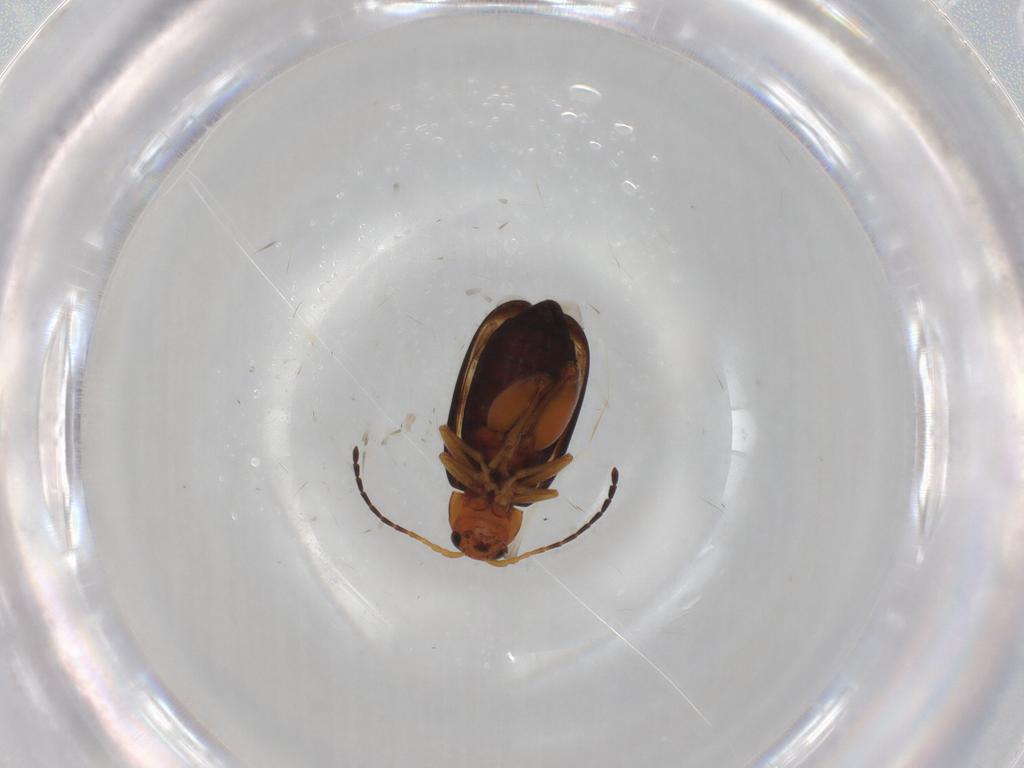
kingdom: Animalia
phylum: Arthropoda
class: Insecta
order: Coleoptera
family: Chrysomelidae
